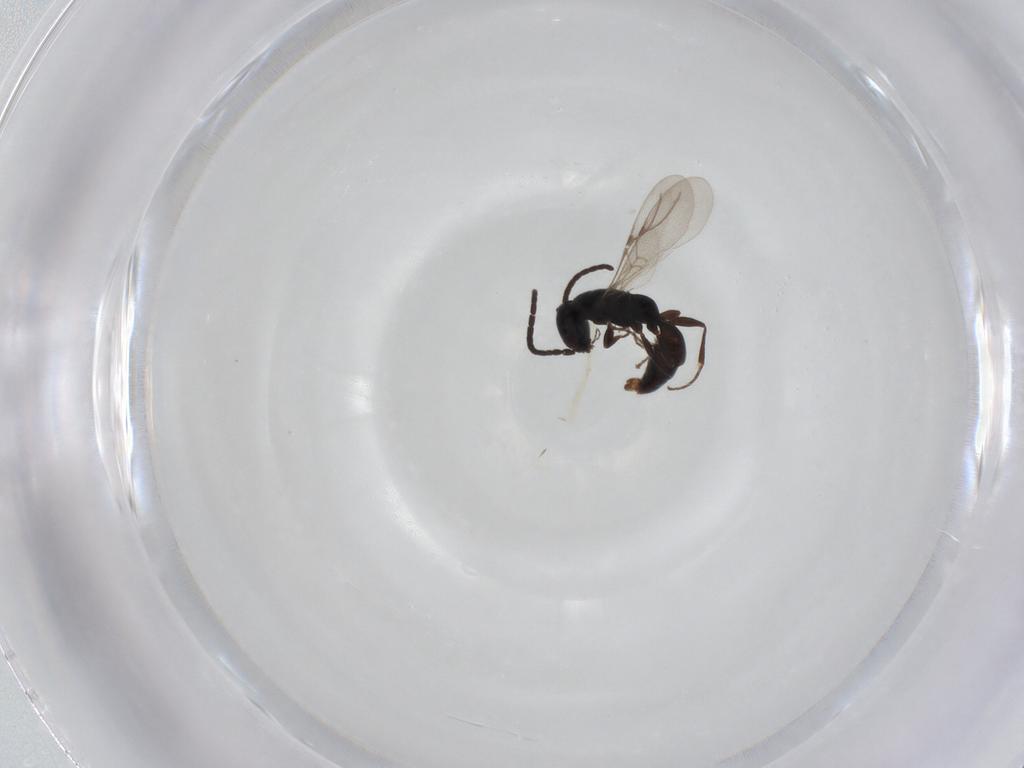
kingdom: Animalia
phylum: Arthropoda
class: Insecta
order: Hymenoptera
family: Bethylidae
